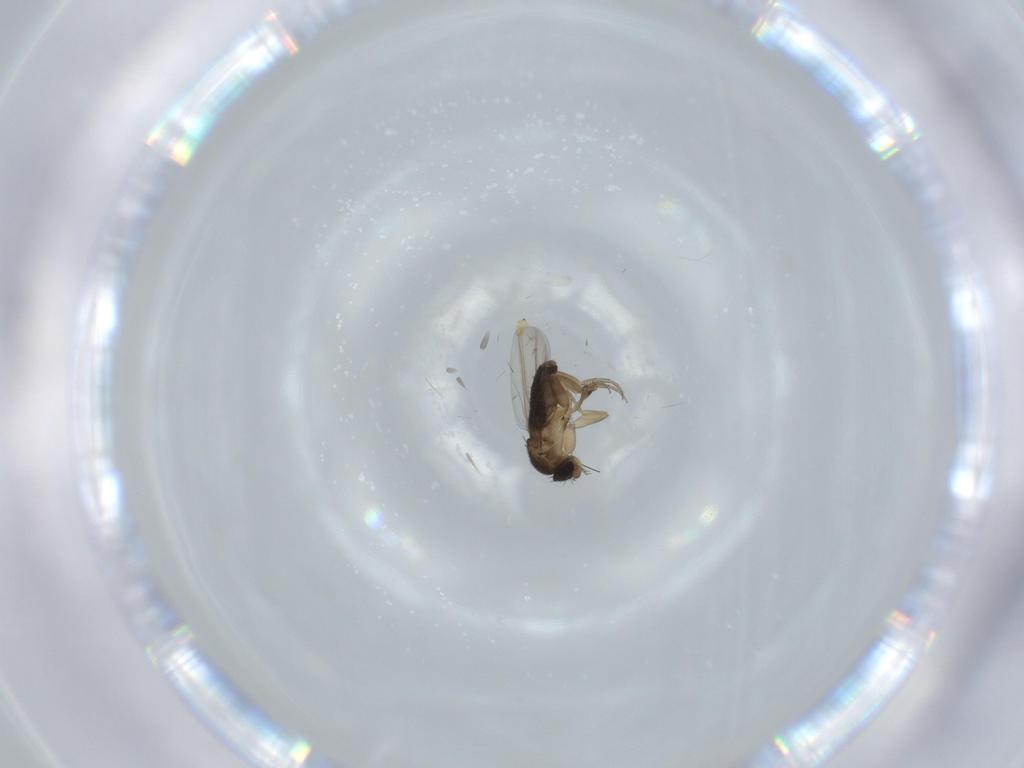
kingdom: Animalia
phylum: Arthropoda
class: Insecta
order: Diptera
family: Phoridae
